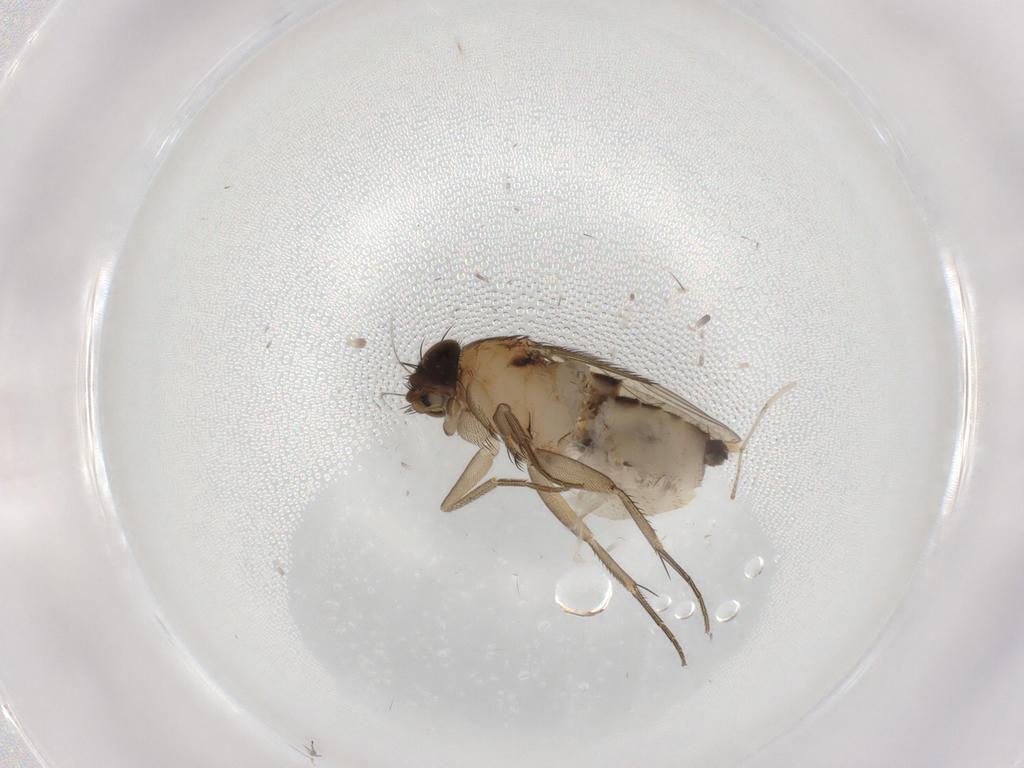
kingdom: Animalia
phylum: Arthropoda
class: Insecta
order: Diptera
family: Phoridae
